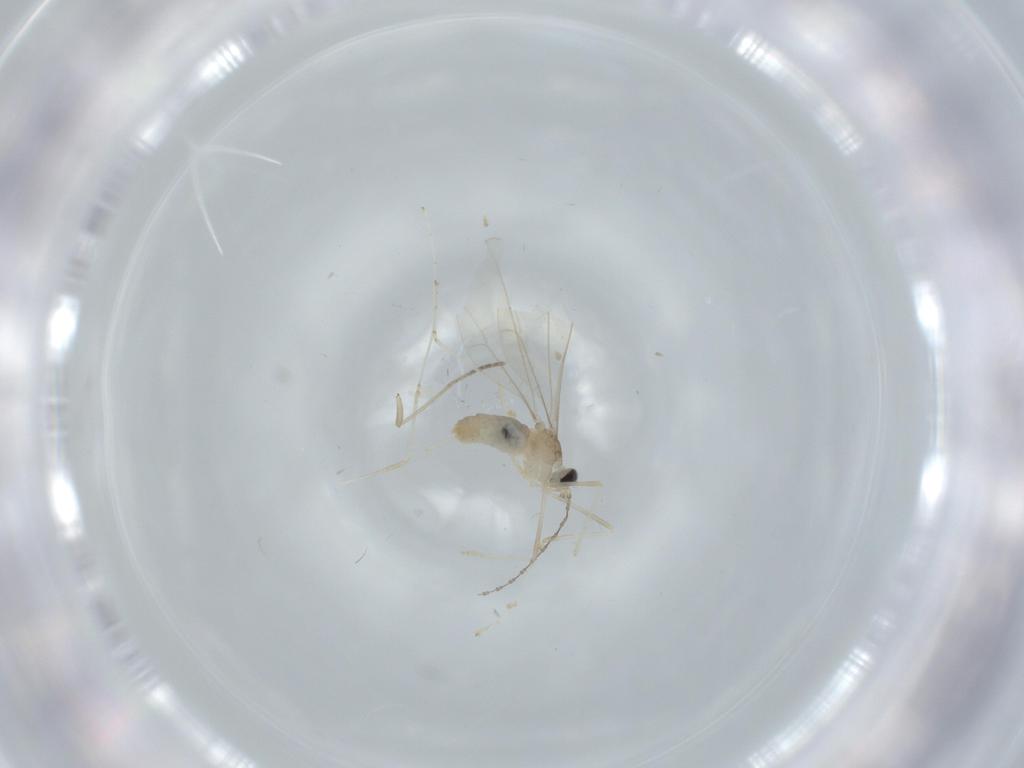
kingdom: Animalia
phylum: Arthropoda
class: Insecta
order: Diptera
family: Cecidomyiidae
